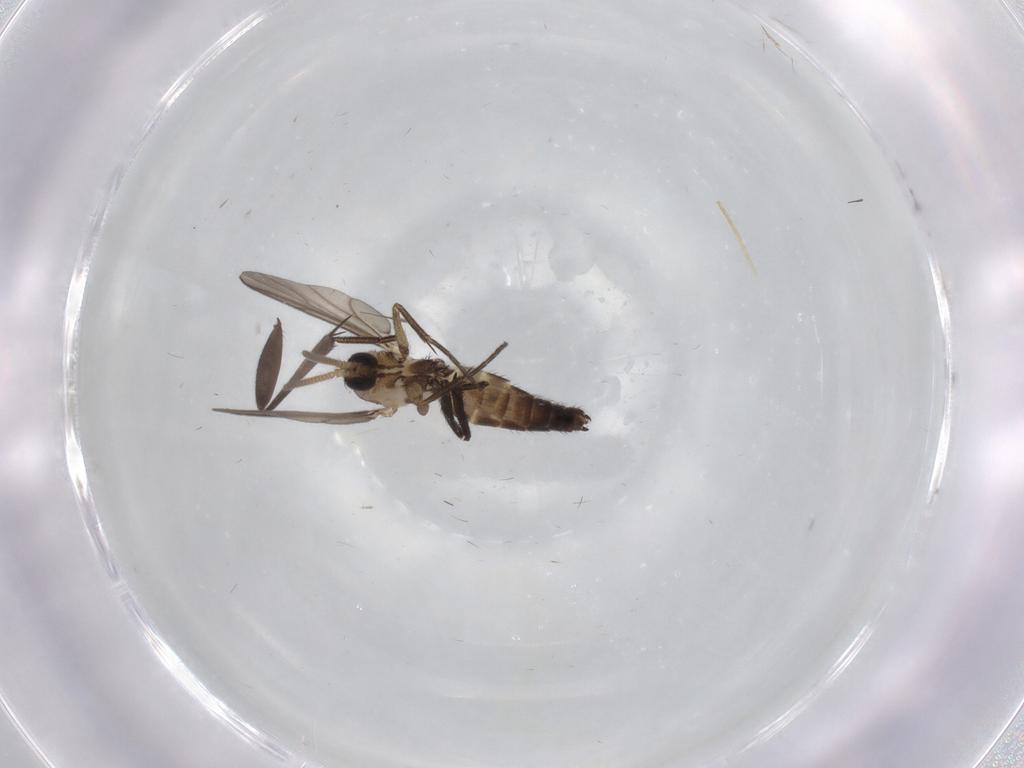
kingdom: Animalia
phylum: Arthropoda
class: Insecta
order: Diptera
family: Mycetophilidae
